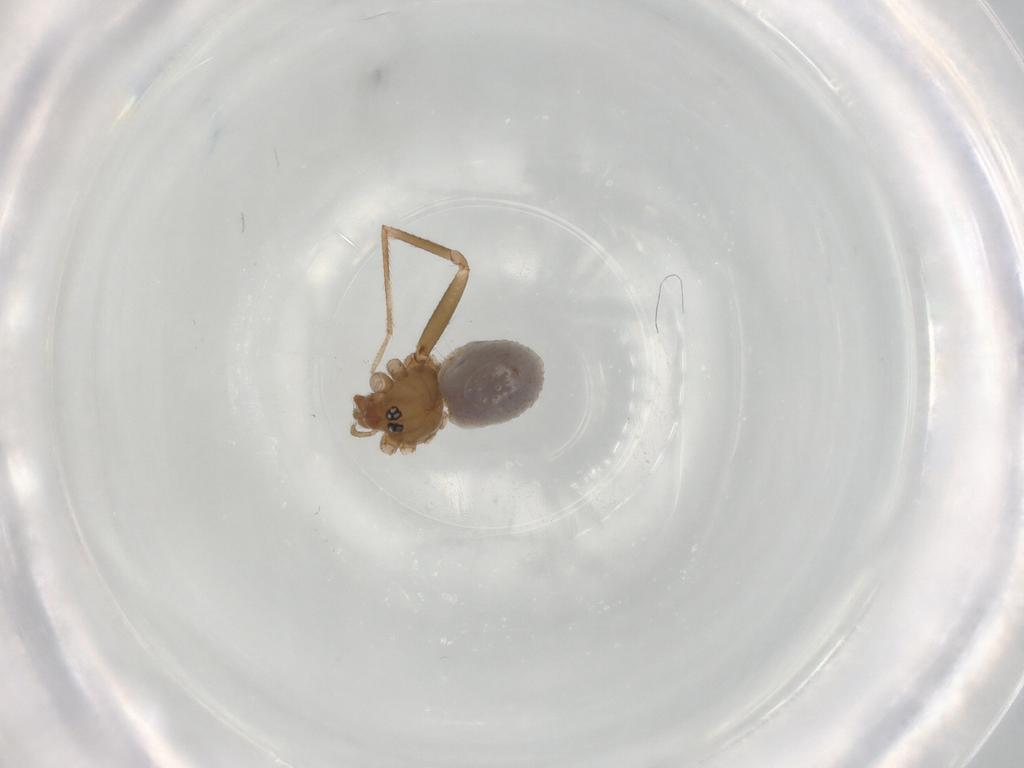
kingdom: Animalia
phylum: Arthropoda
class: Arachnida
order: Araneae
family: Pholcidae
